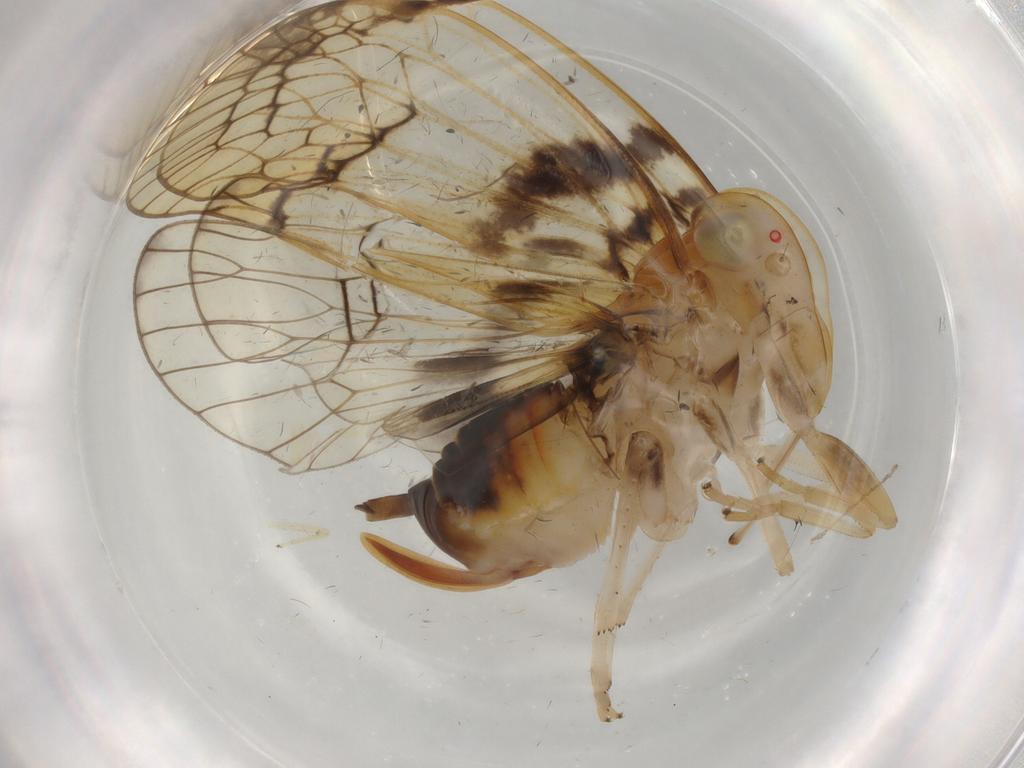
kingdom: Animalia
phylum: Arthropoda
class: Insecta
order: Hemiptera
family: Cixiidae
